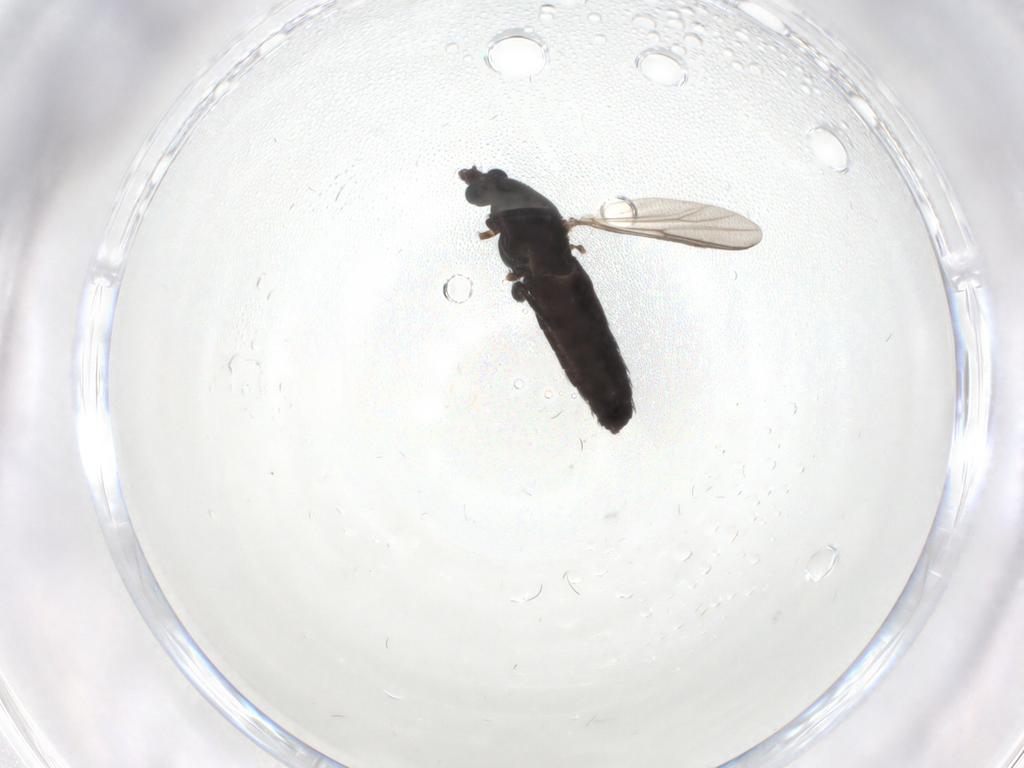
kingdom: Animalia
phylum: Arthropoda
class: Insecta
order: Diptera
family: Chironomidae
